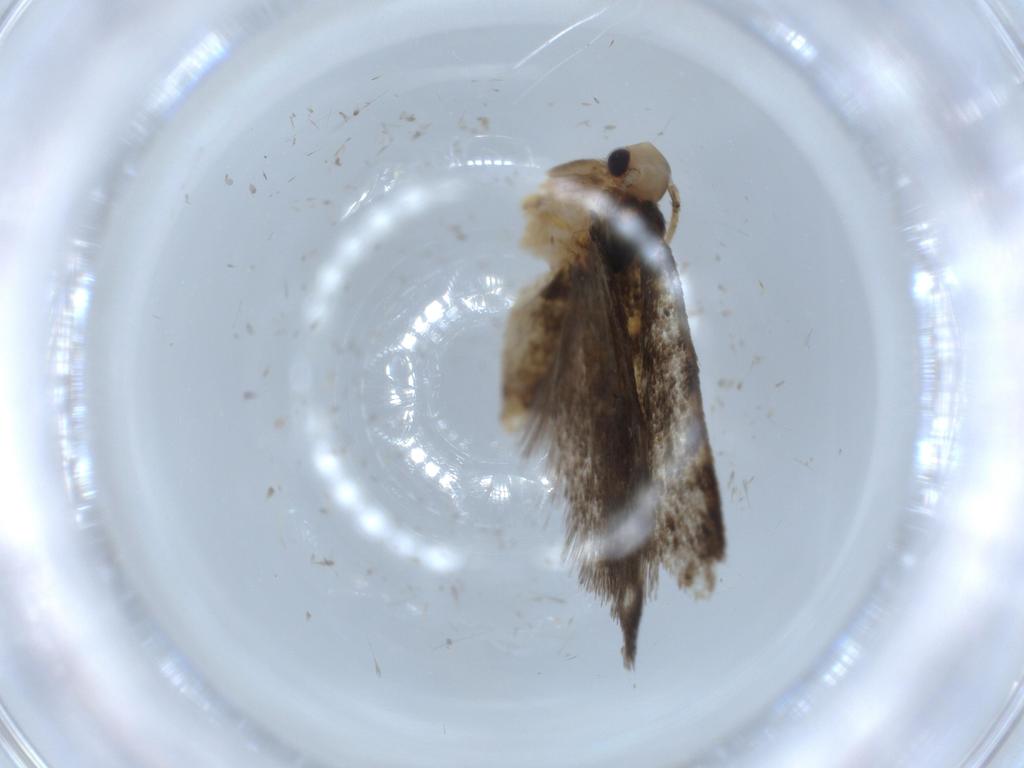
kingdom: Animalia
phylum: Arthropoda
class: Insecta
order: Lepidoptera
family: Tineidae
